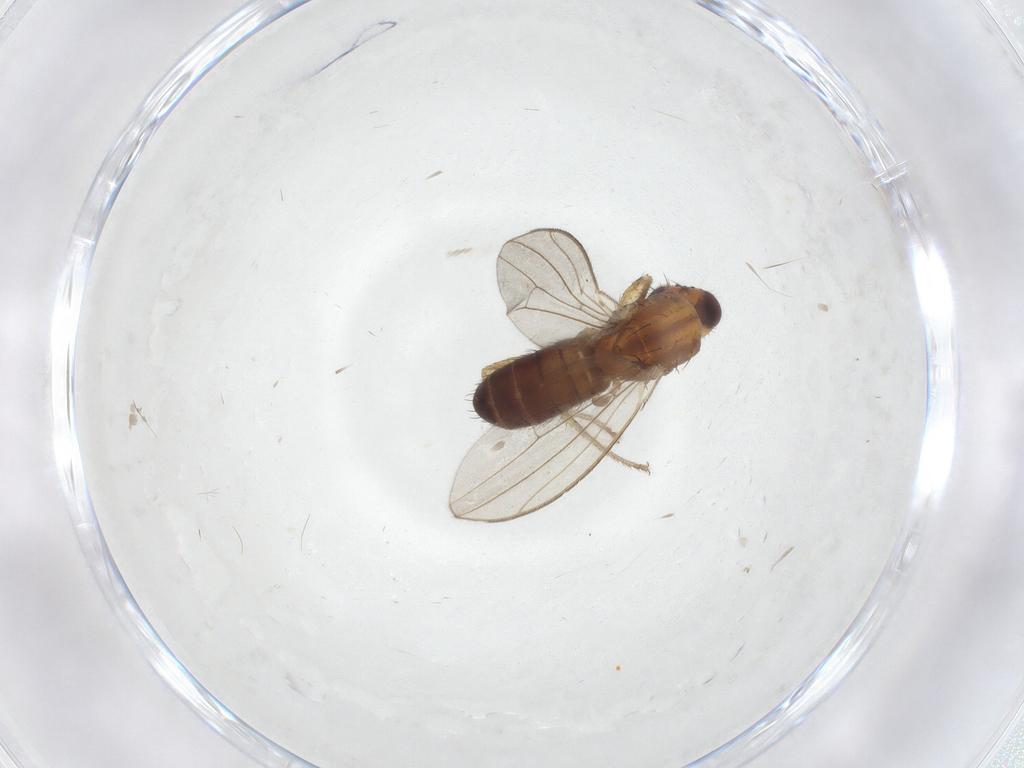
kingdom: Animalia
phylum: Arthropoda
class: Insecta
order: Diptera
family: Drosophilidae
